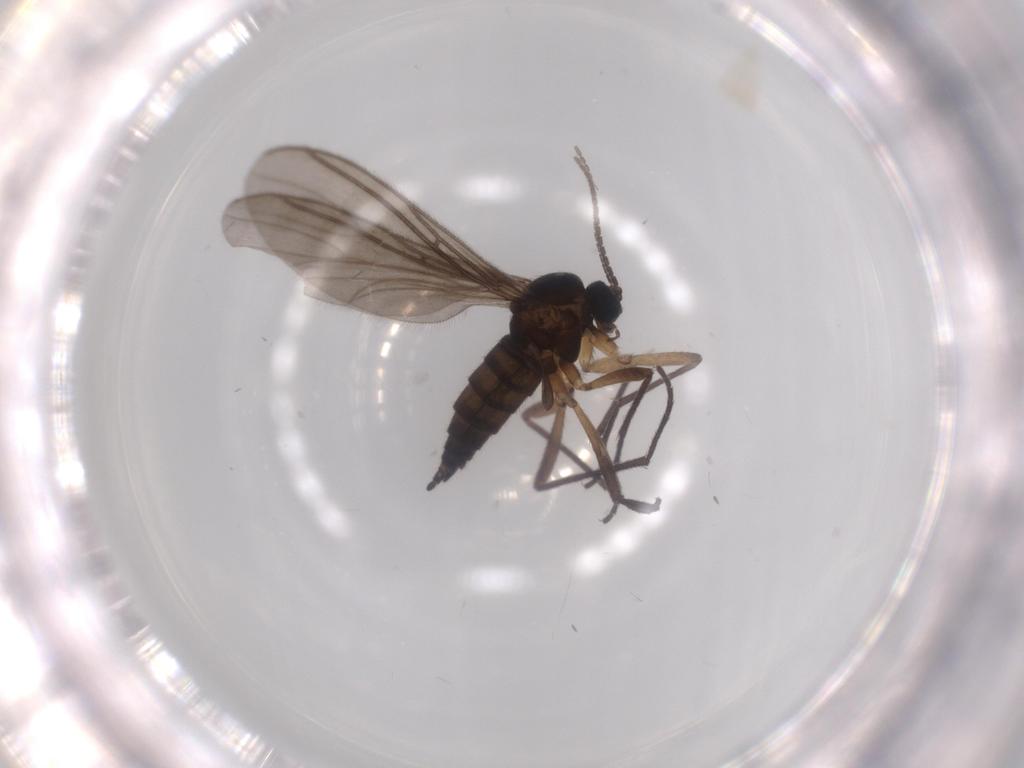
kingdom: Animalia
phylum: Arthropoda
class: Insecta
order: Diptera
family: Sciaridae
